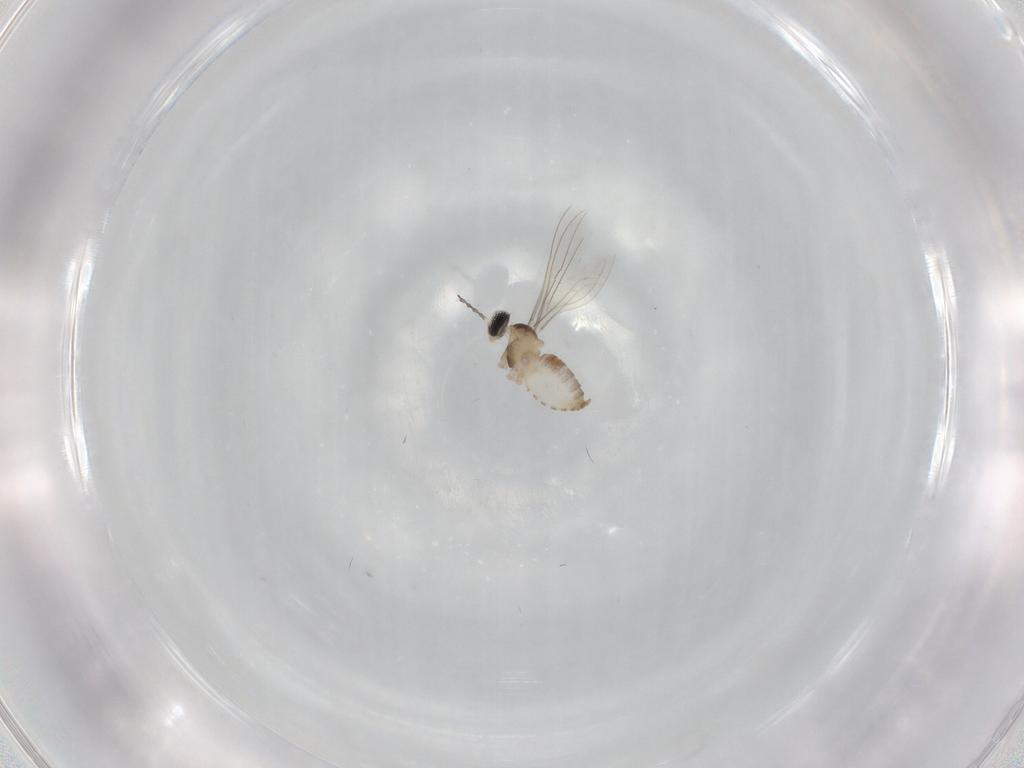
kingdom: Animalia
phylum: Arthropoda
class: Insecta
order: Diptera
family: Cecidomyiidae
